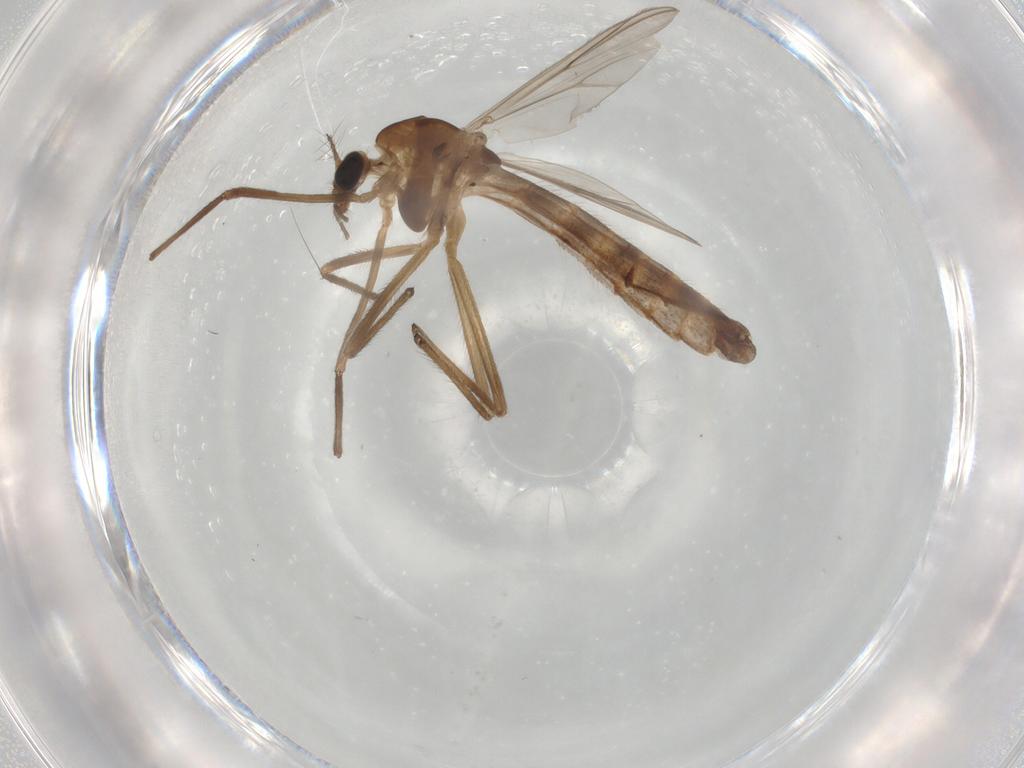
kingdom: Animalia
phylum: Arthropoda
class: Insecta
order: Diptera
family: Chironomidae
